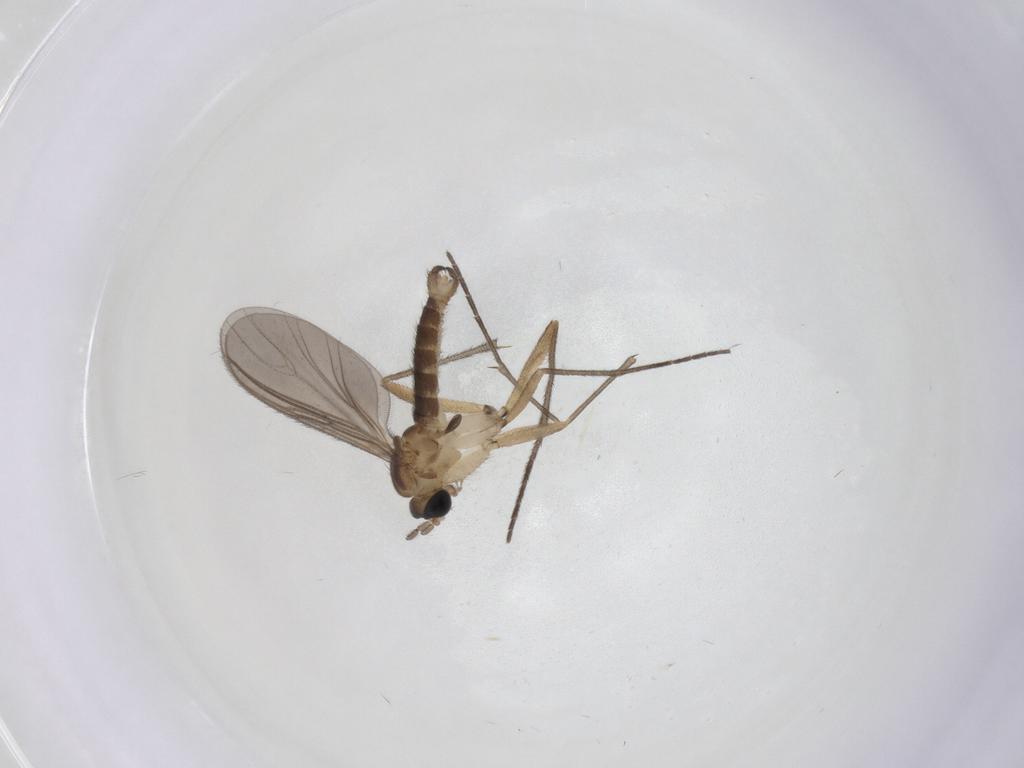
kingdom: Animalia
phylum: Arthropoda
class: Insecta
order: Diptera
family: Sciaridae
